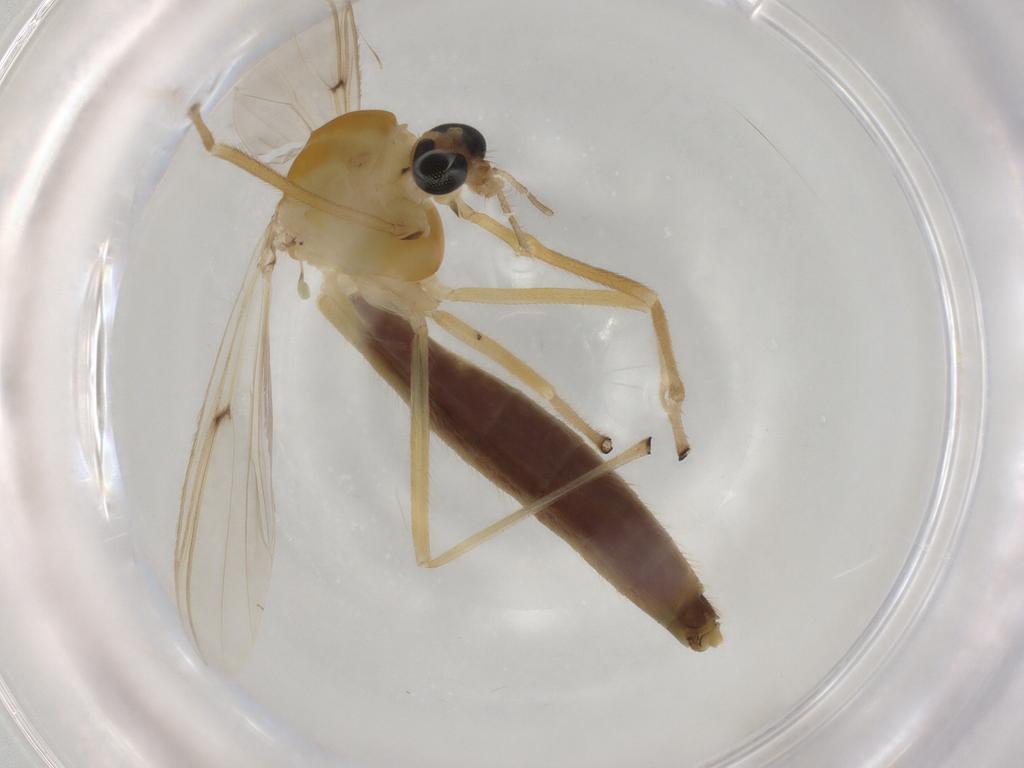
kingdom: Animalia
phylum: Arthropoda
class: Insecta
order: Diptera
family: Chironomidae
